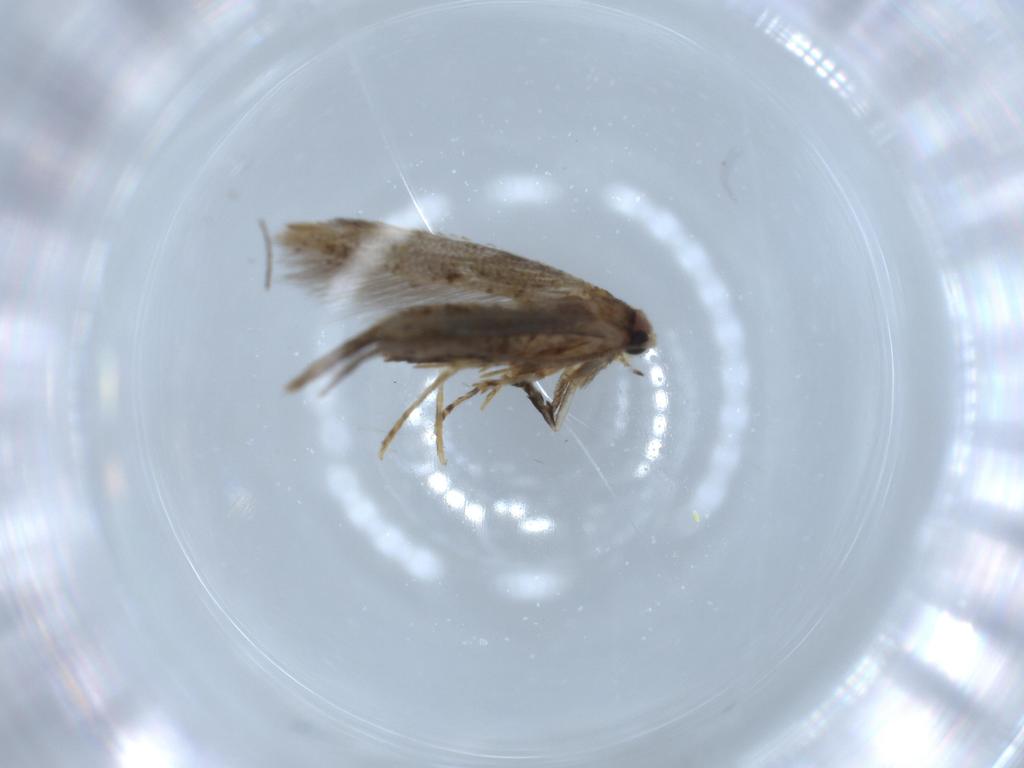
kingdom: Animalia
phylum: Arthropoda
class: Insecta
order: Lepidoptera
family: Tineidae
